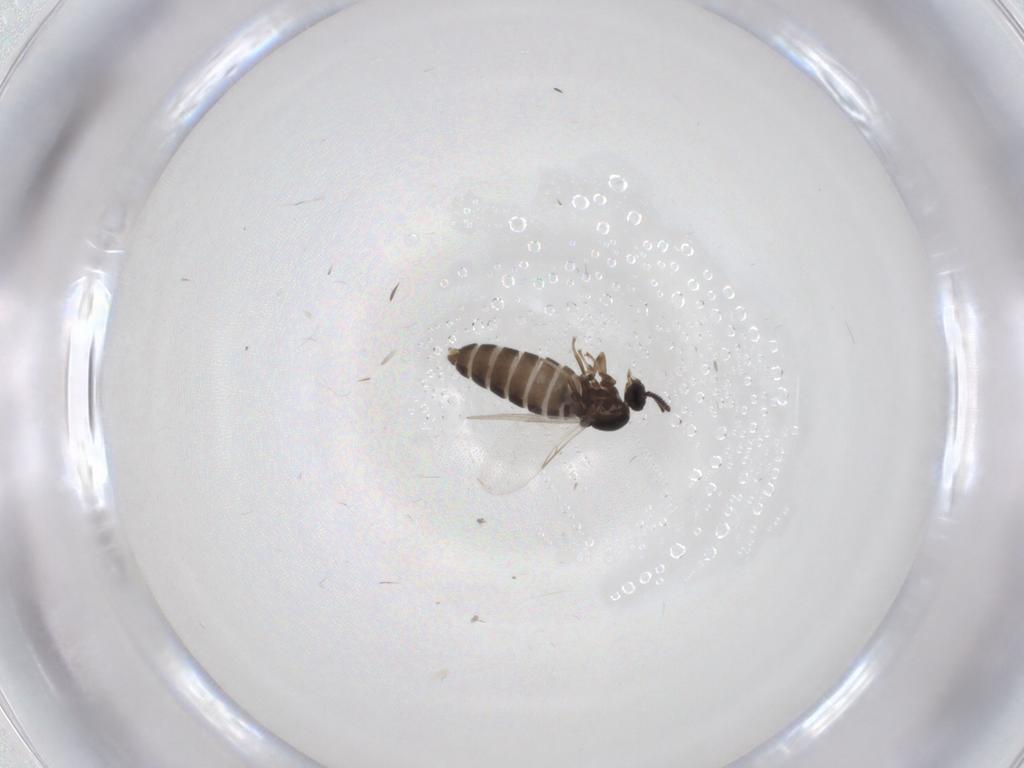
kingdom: Animalia
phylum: Arthropoda
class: Insecta
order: Diptera
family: Scatopsidae
